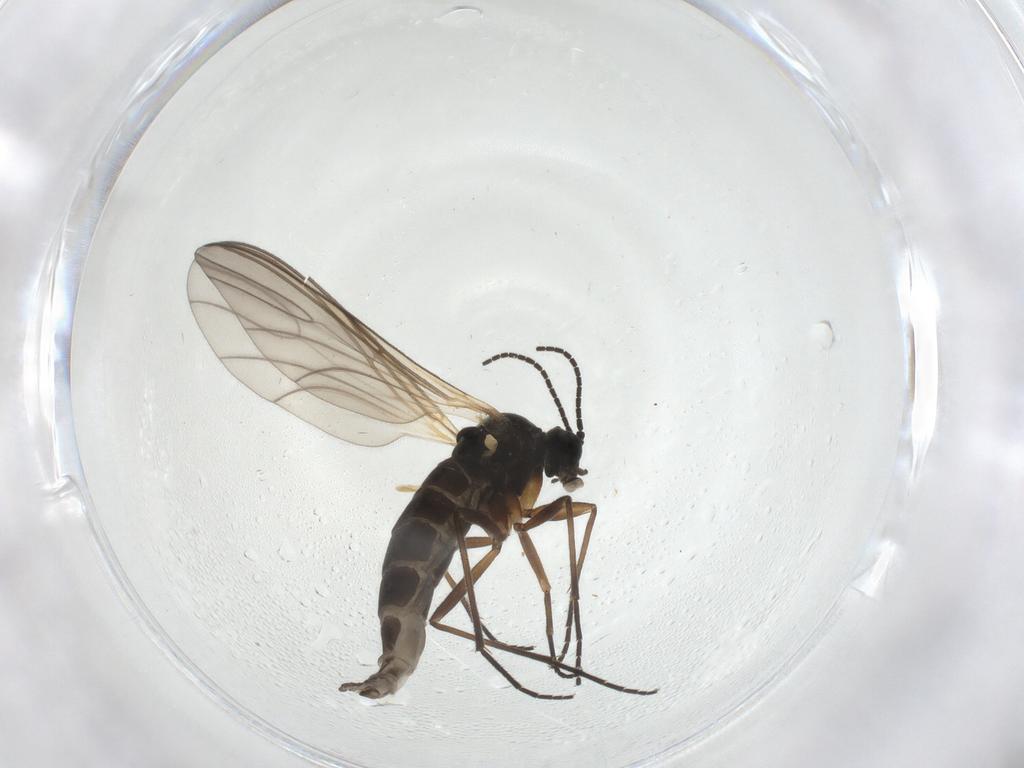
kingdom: Animalia
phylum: Arthropoda
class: Insecta
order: Diptera
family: Sciaridae
